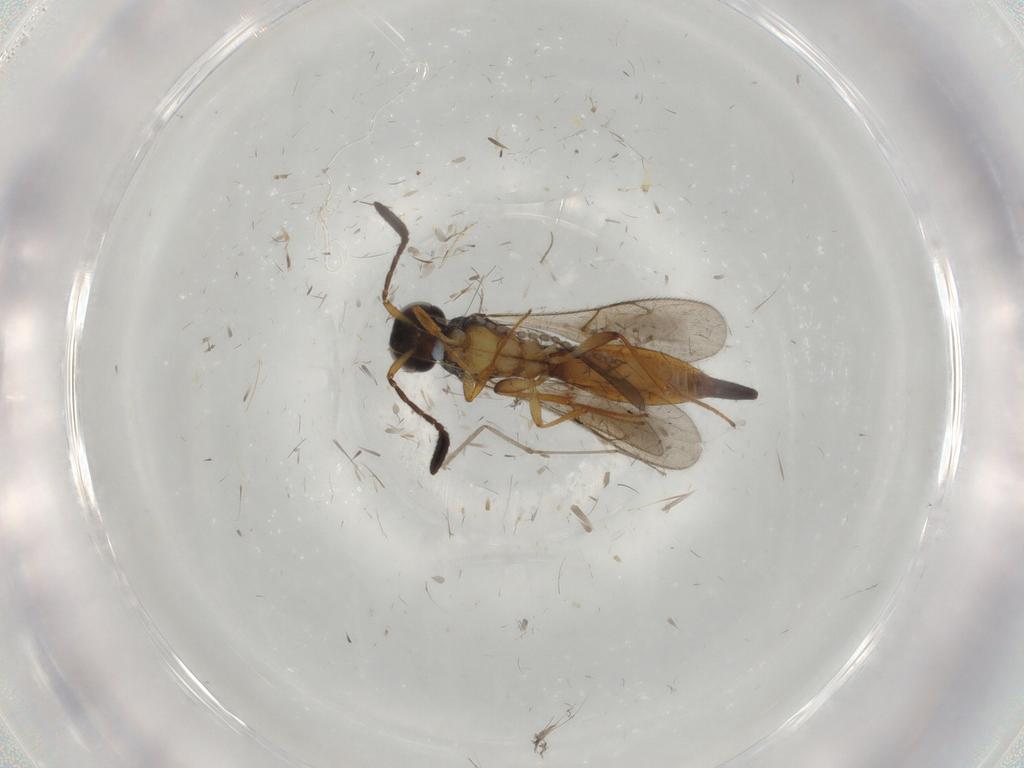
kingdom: Animalia
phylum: Arthropoda
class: Insecta
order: Hymenoptera
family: Scelionidae
